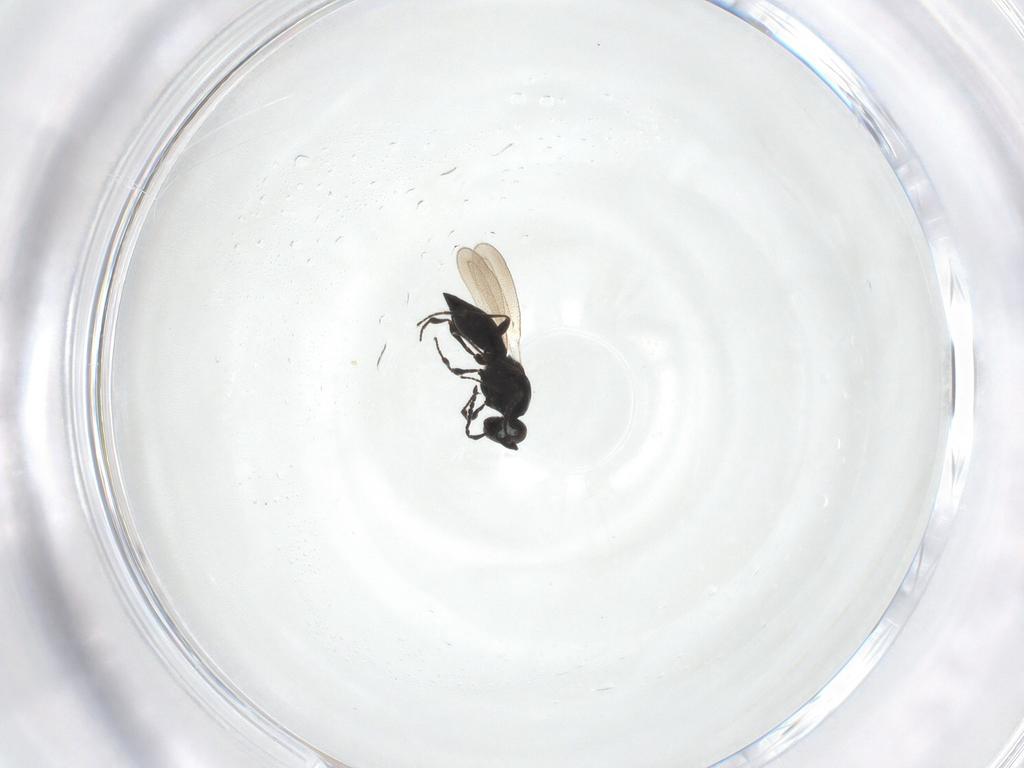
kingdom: Animalia
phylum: Arthropoda
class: Insecta
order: Hymenoptera
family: Platygastridae
